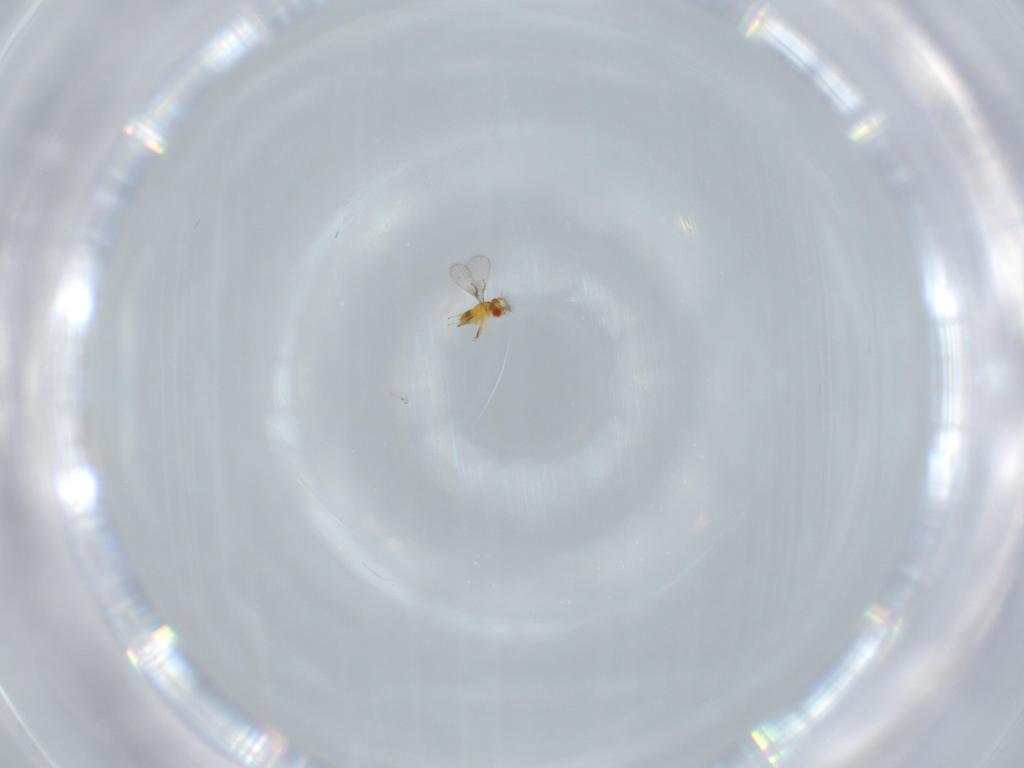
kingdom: Animalia
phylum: Arthropoda
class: Insecta
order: Hymenoptera
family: Trichogrammatidae
